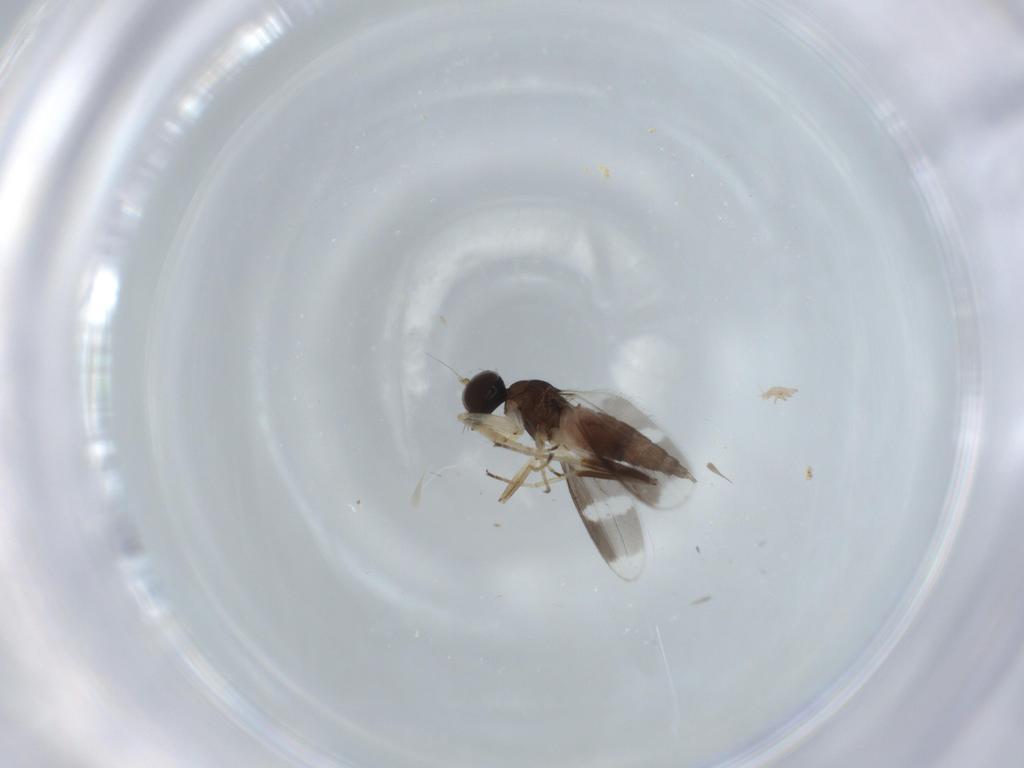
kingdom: Animalia
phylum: Arthropoda
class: Insecta
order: Diptera
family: Hybotidae
